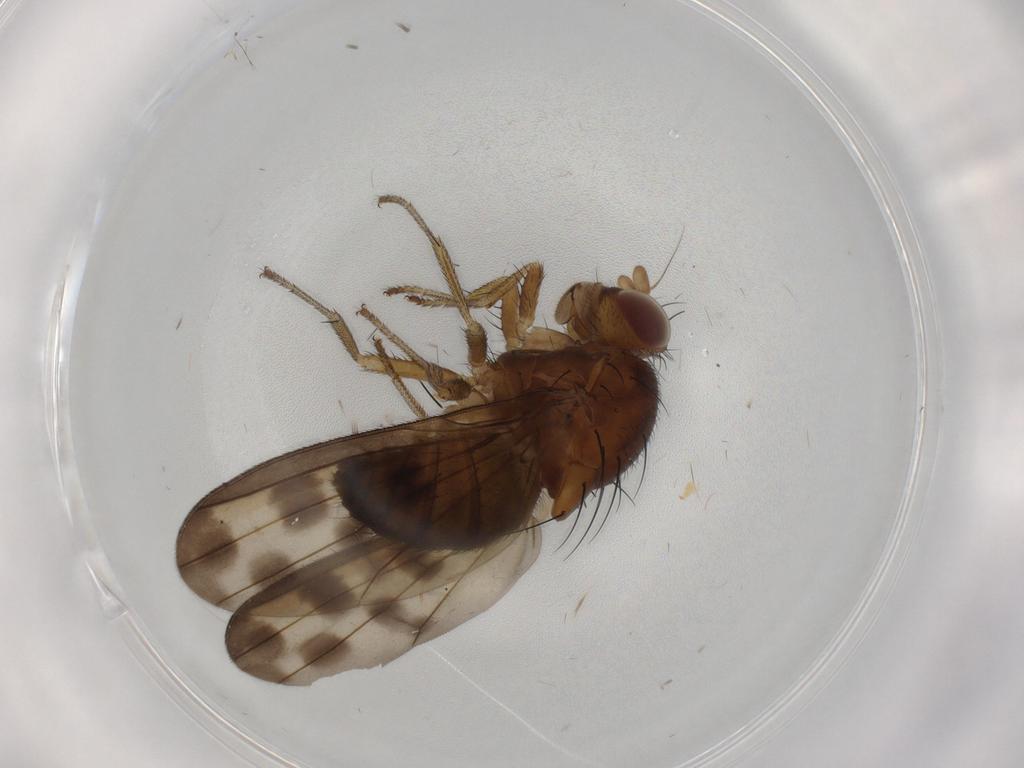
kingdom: Animalia
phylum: Arthropoda
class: Insecta
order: Diptera
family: Lauxaniidae
